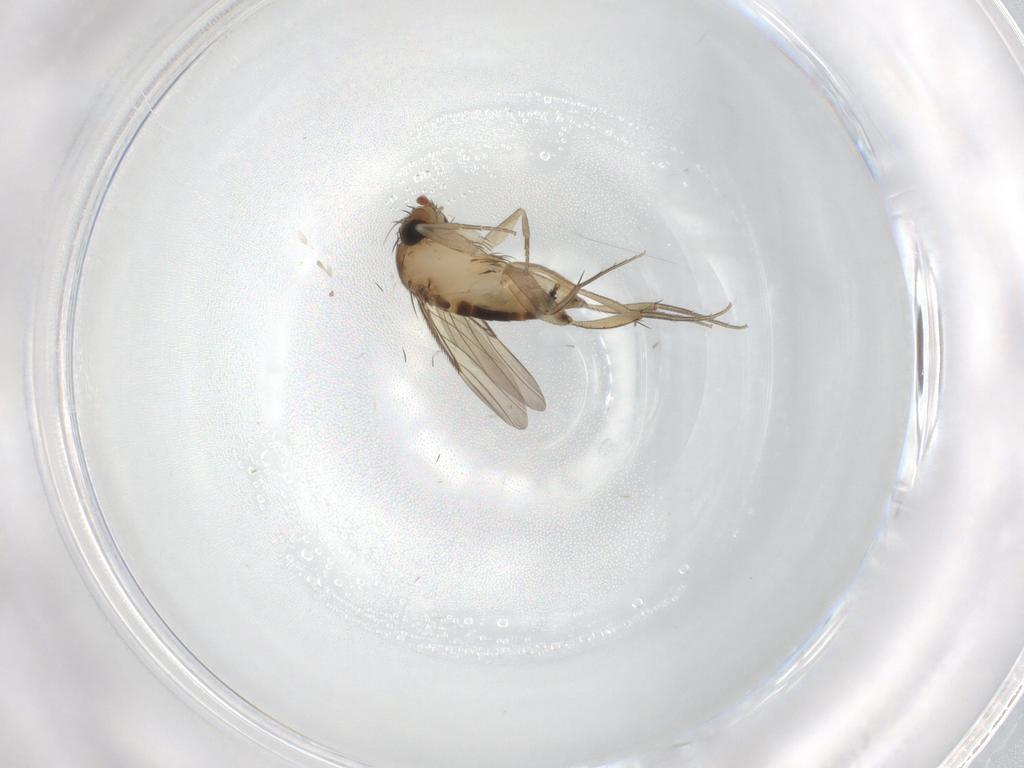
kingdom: Animalia
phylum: Arthropoda
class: Insecta
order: Diptera
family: Phoridae
